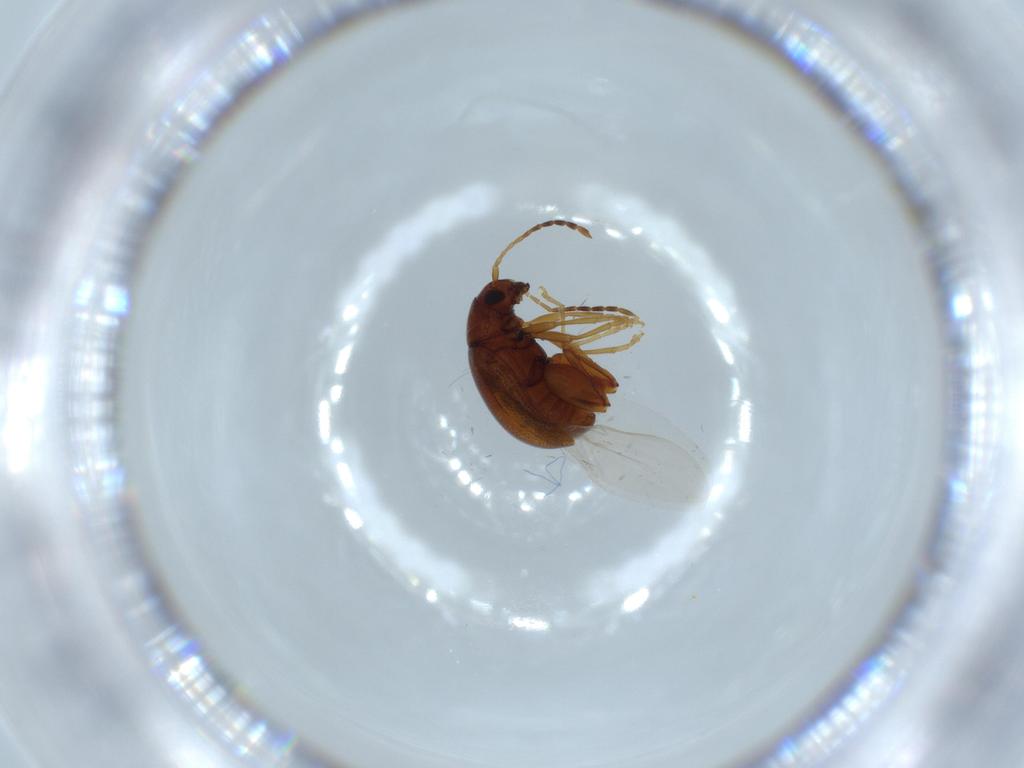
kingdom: Animalia
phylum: Arthropoda
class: Insecta
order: Coleoptera
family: Chrysomelidae
